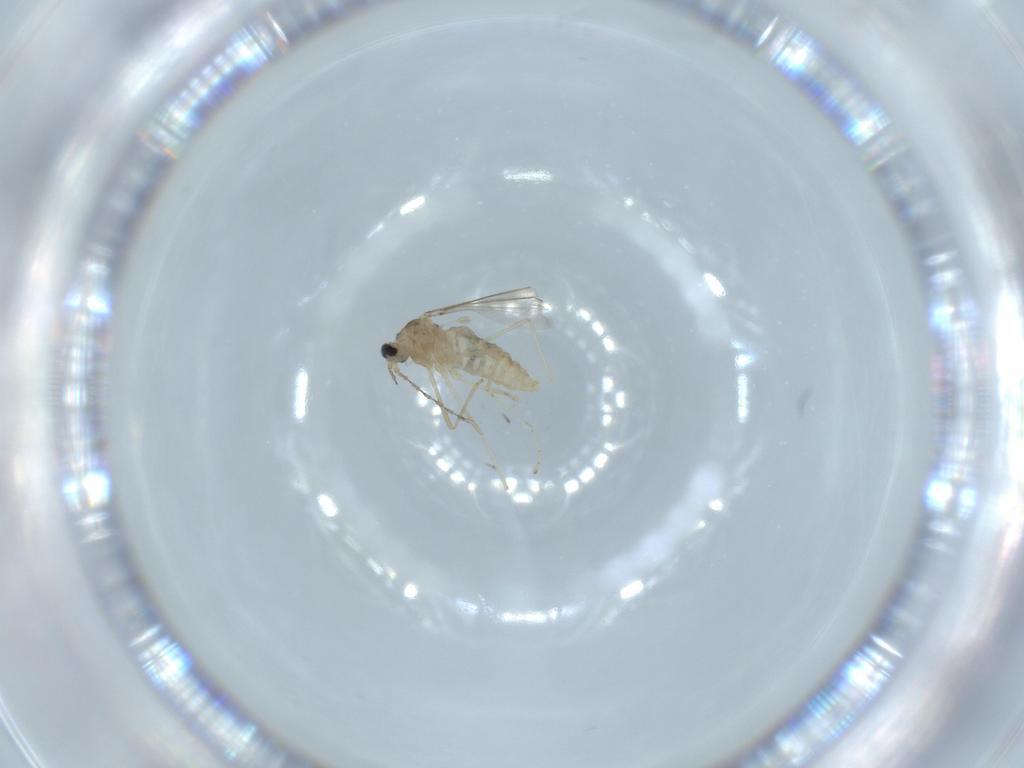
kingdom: Animalia
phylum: Arthropoda
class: Insecta
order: Diptera
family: Cecidomyiidae
